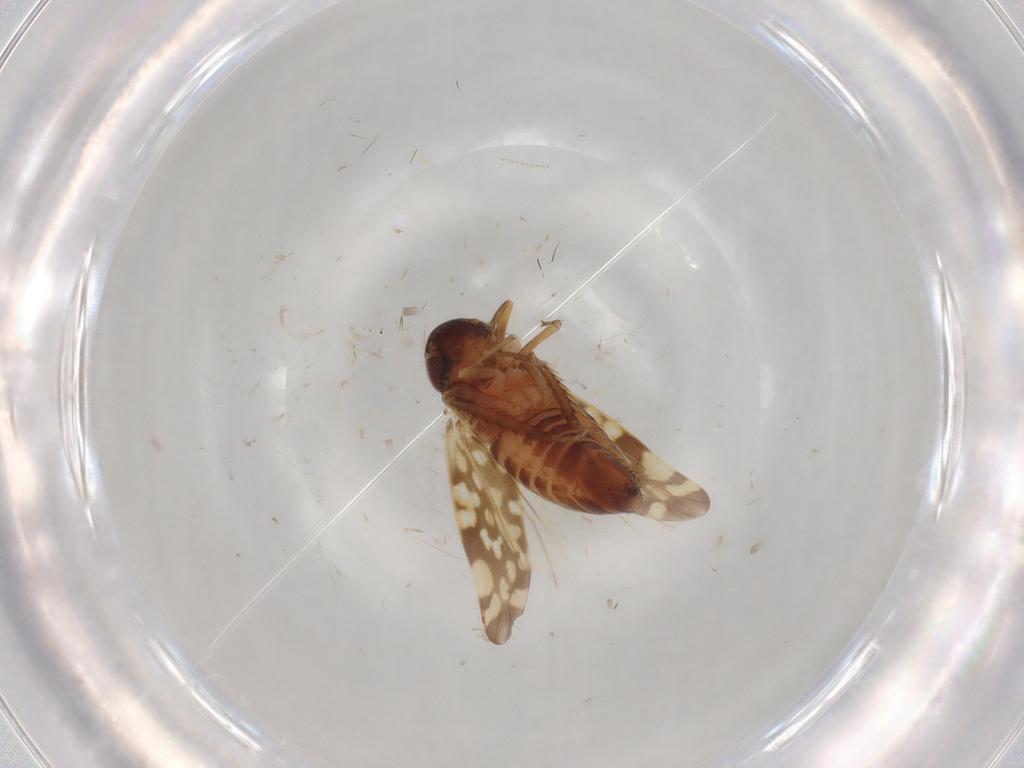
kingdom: Animalia
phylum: Arthropoda
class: Insecta
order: Hemiptera
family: Cicadellidae
